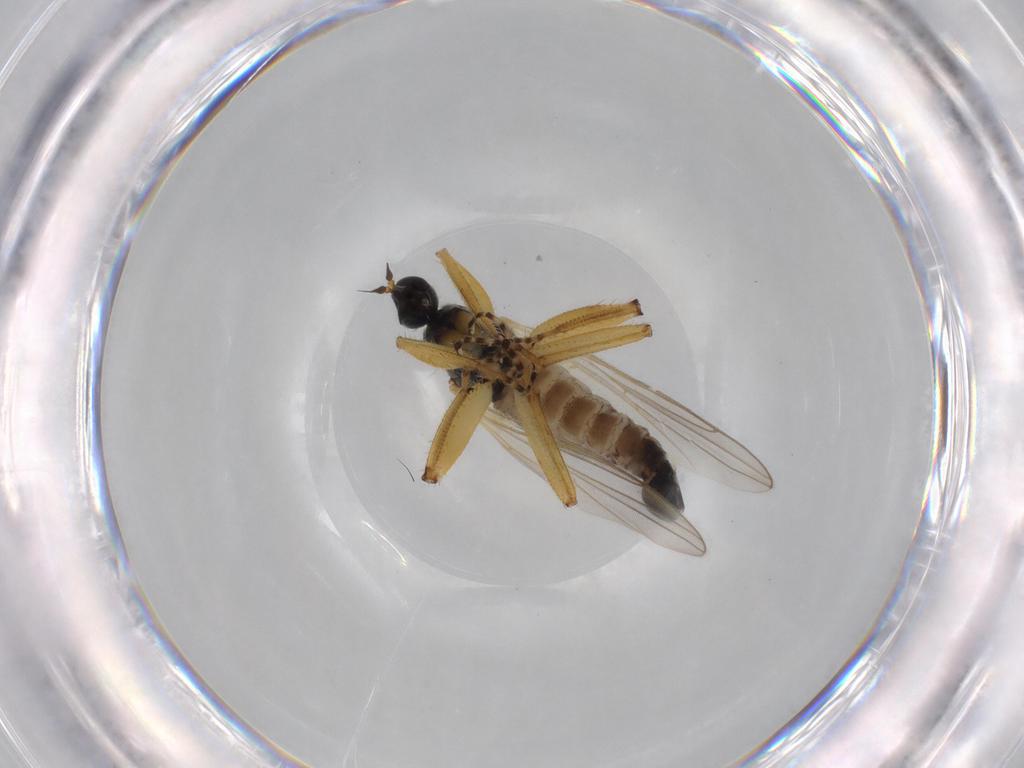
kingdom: Animalia
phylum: Arthropoda
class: Insecta
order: Diptera
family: Hybotidae
